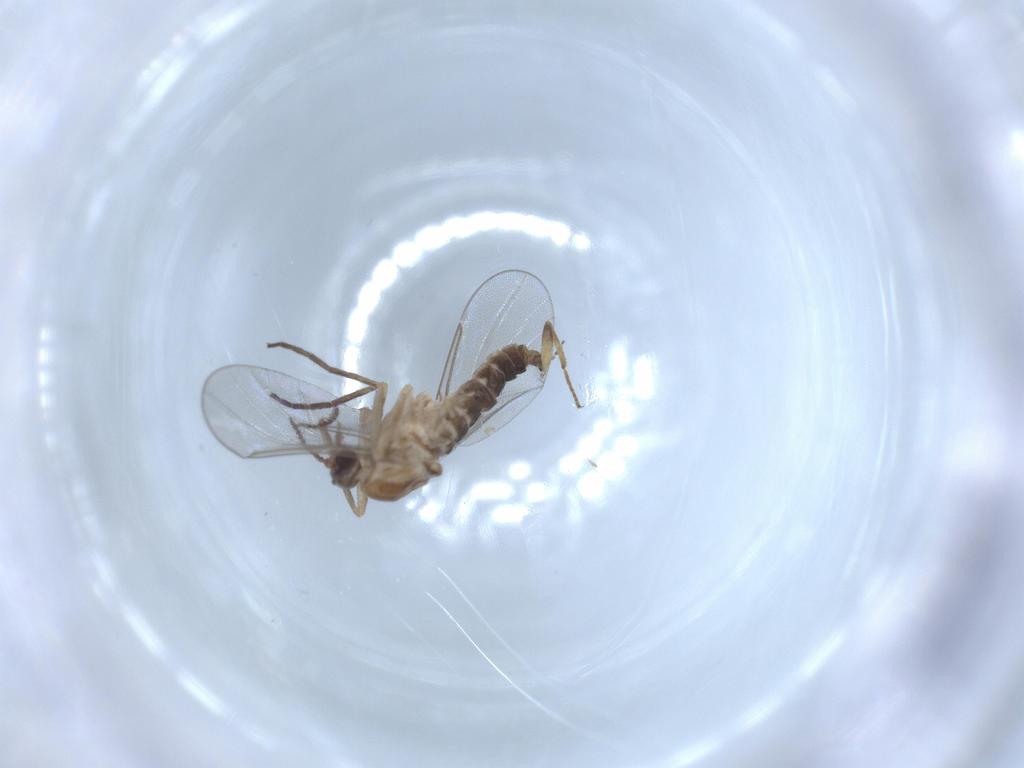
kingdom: Animalia
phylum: Arthropoda
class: Insecta
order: Diptera
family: Cecidomyiidae
